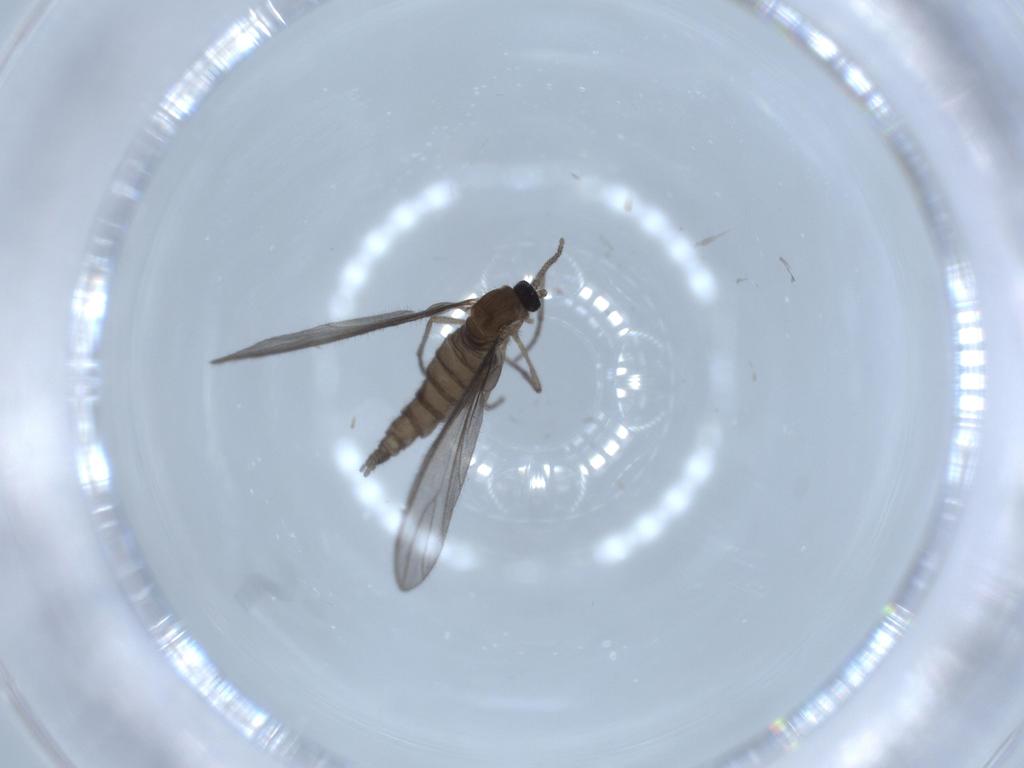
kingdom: Animalia
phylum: Arthropoda
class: Insecta
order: Diptera
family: Sciaridae
